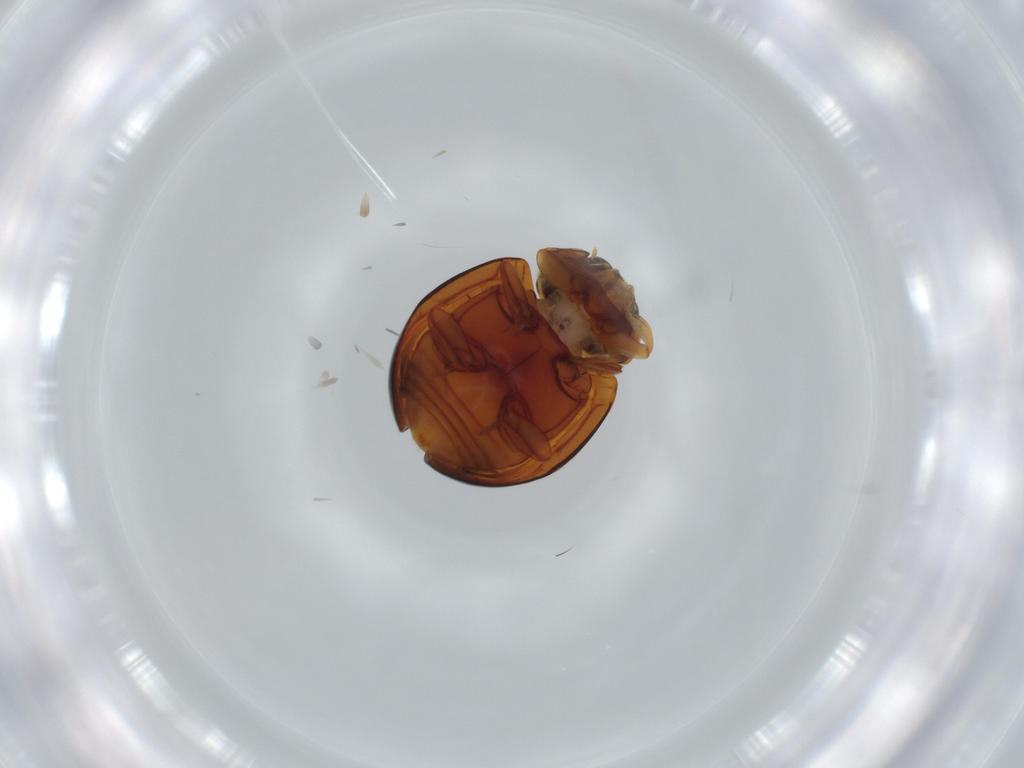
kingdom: Animalia
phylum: Arthropoda
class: Insecta
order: Coleoptera
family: Coccinellidae
